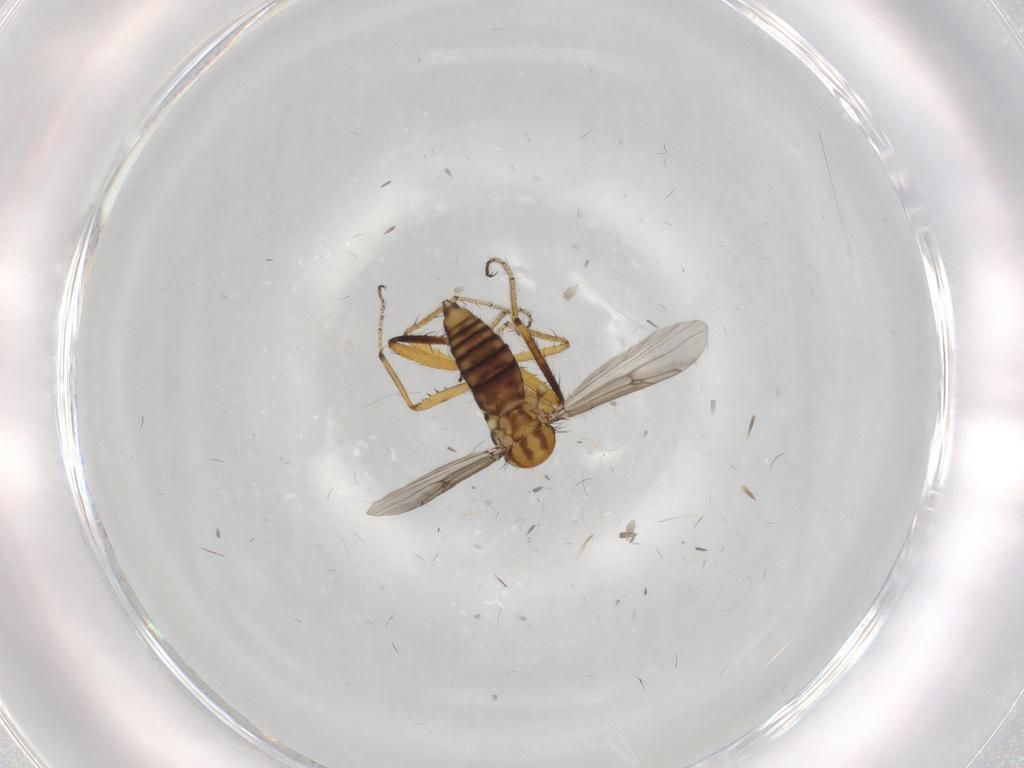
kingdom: Animalia
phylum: Arthropoda
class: Insecta
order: Diptera
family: Ceratopogonidae
